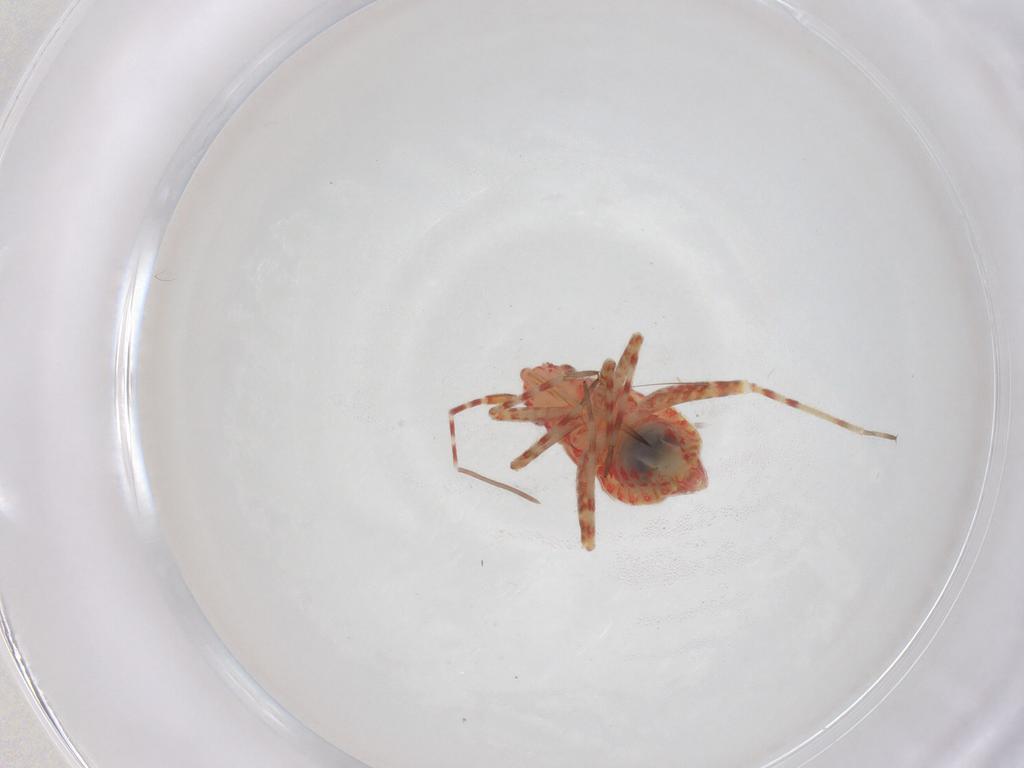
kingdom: Animalia
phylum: Arthropoda
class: Insecta
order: Hemiptera
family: Miridae
